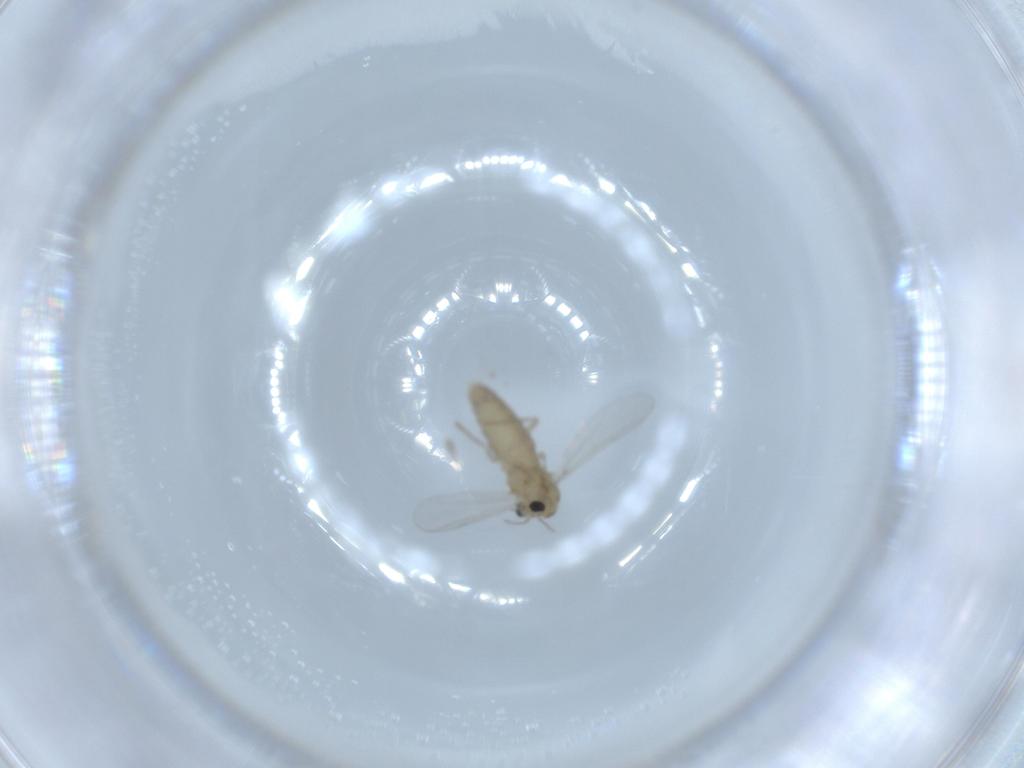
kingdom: Animalia
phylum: Arthropoda
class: Insecta
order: Diptera
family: Chironomidae
